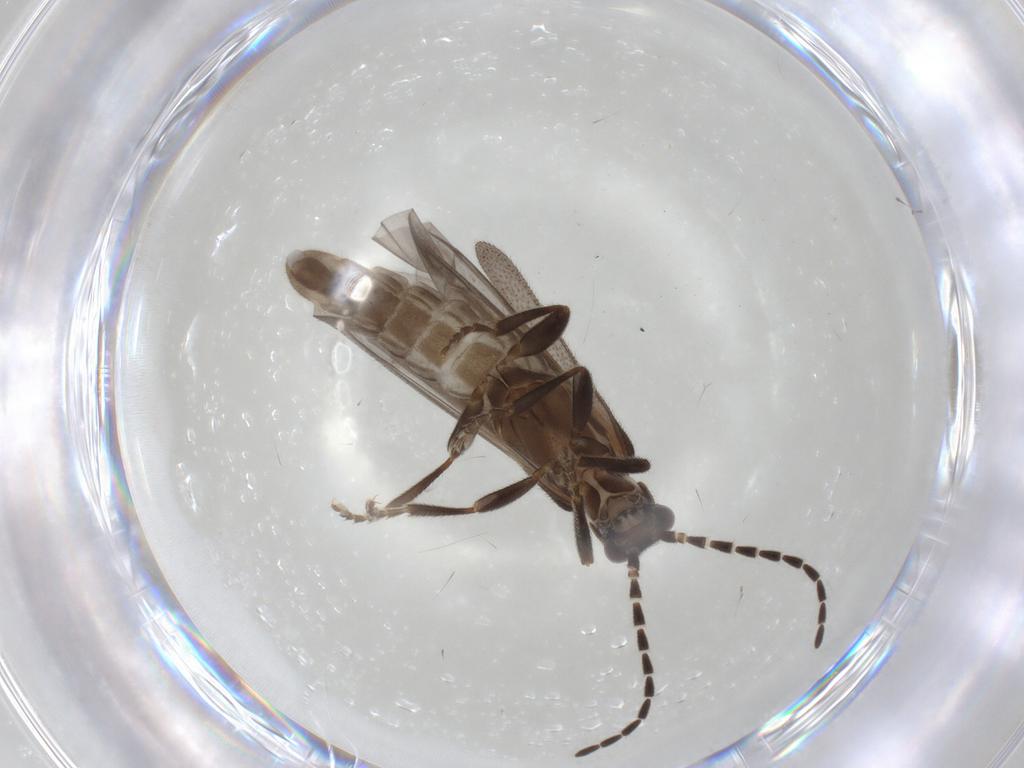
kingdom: Animalia
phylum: Arthropoda
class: Insecta
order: Coleoptera
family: Cantharidae
